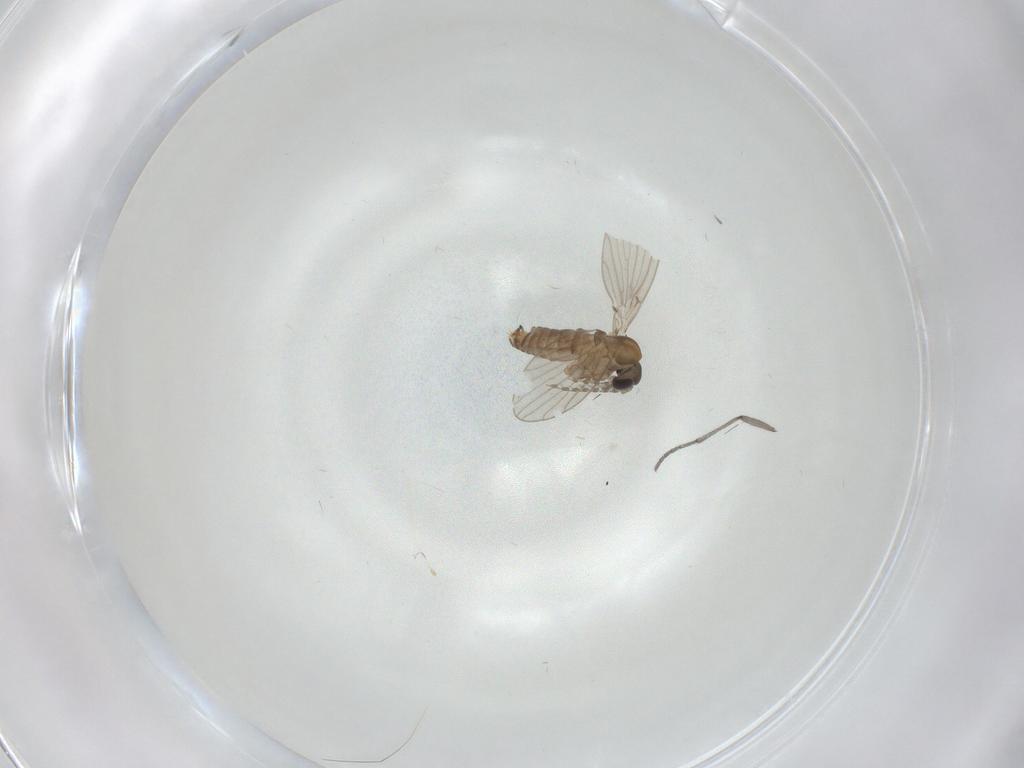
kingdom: Animalia
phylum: Arthropoda
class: Insecta
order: Diptera
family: Sciaridae
